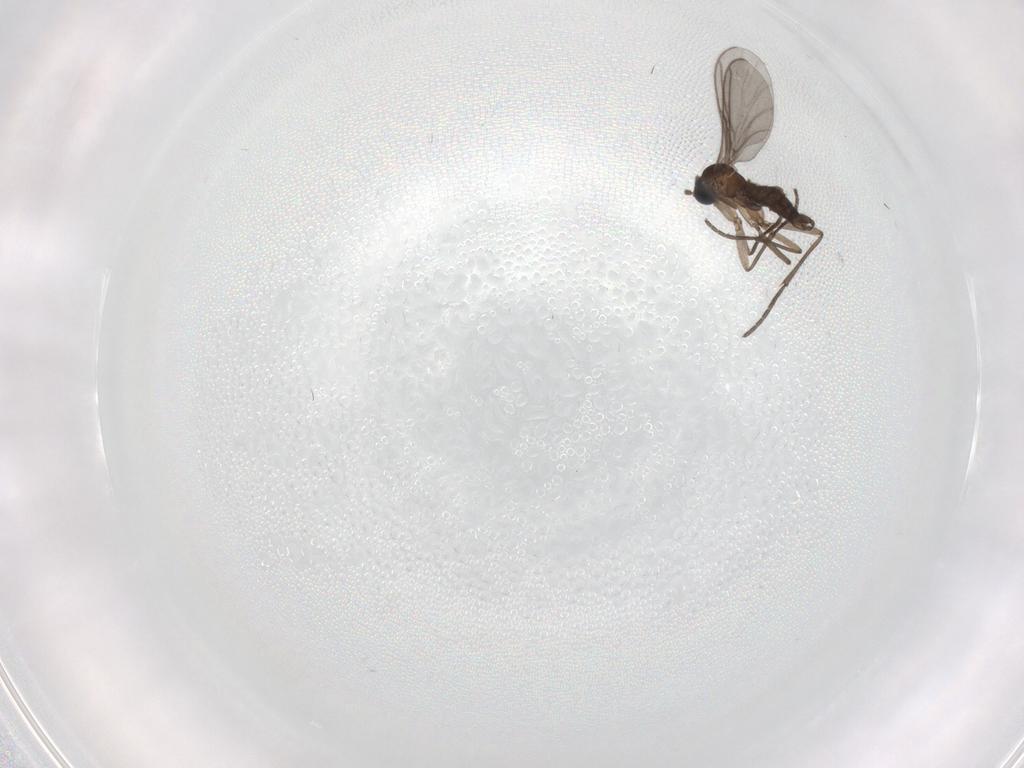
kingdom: Animalia
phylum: Arthropoda
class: Insecta
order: Diptera
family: Sciaridae
